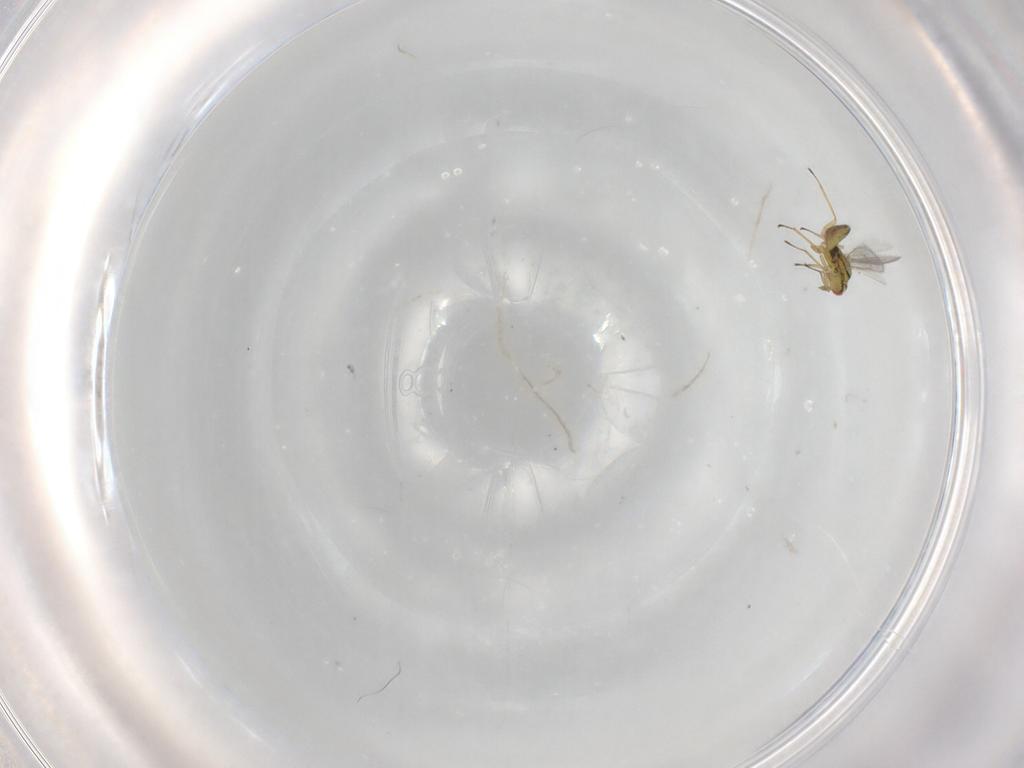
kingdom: Animalia
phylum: Arthropoda
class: Insecta
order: Hymenoptera
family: Eulophidae
